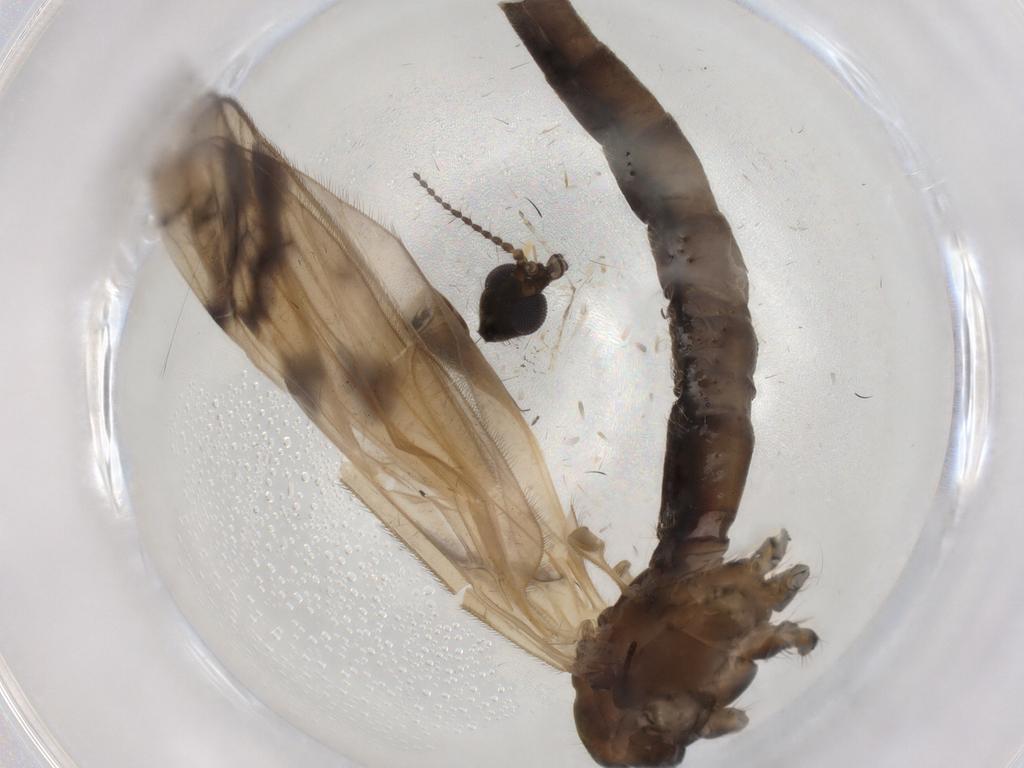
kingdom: Animalia
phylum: Arthropoda
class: Insecta
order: Diptera
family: Sciaridae
